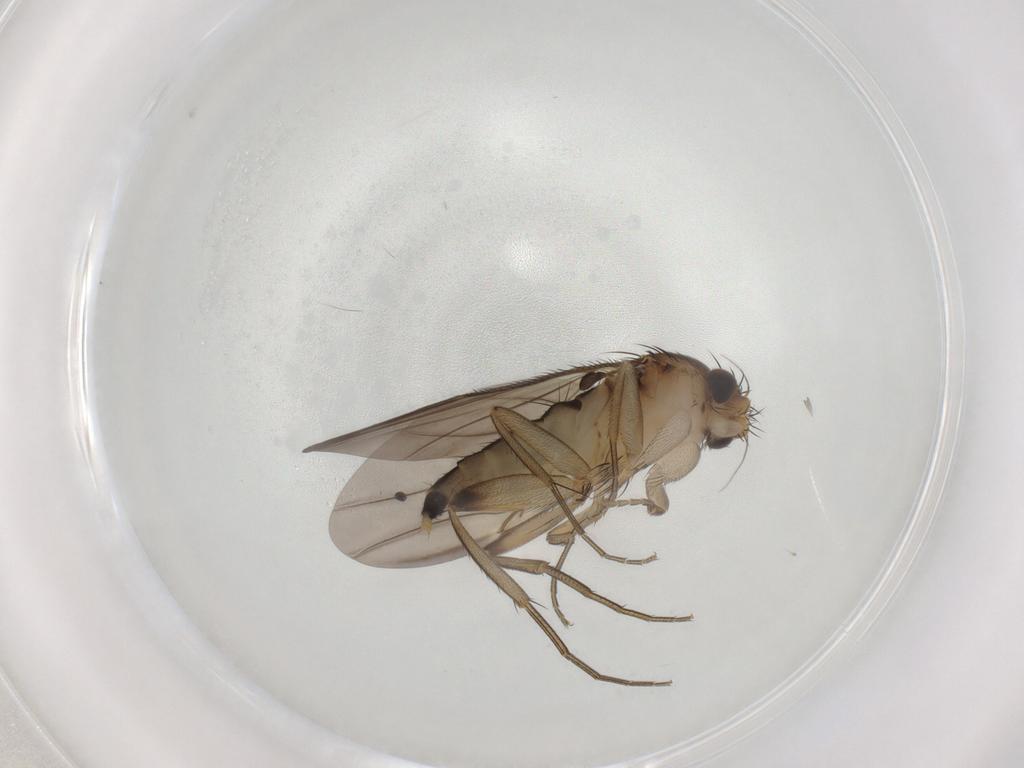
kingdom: Animalia
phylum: Arthropoda
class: Insecta
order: Diptera
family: Phoridae
